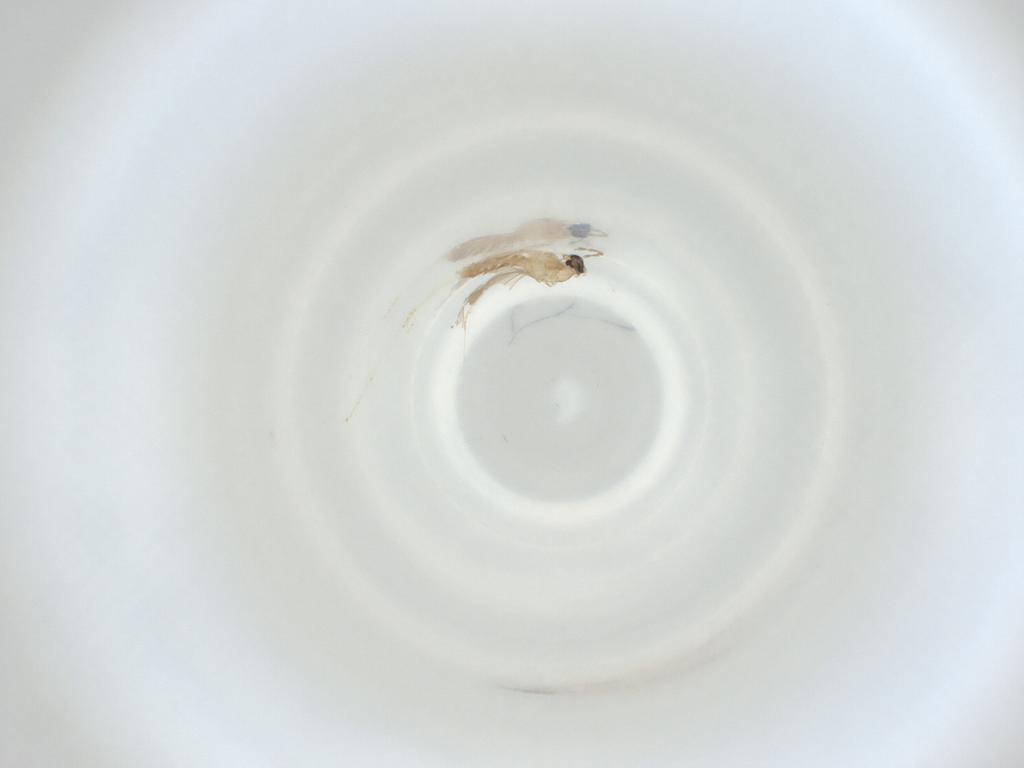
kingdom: Animalia
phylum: Arthropoda
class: Insecta
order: Diptera
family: Cecidomyiidae
